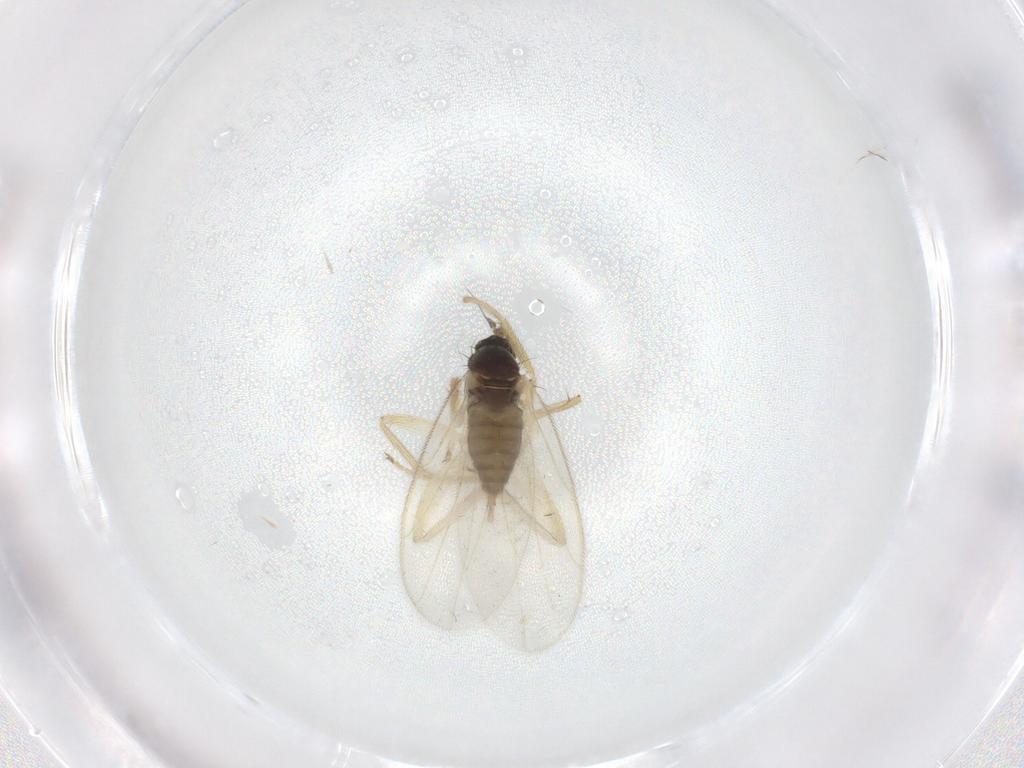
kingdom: Animalia
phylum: Arthropoda
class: Insecta
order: Diptera
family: Hybotidae
